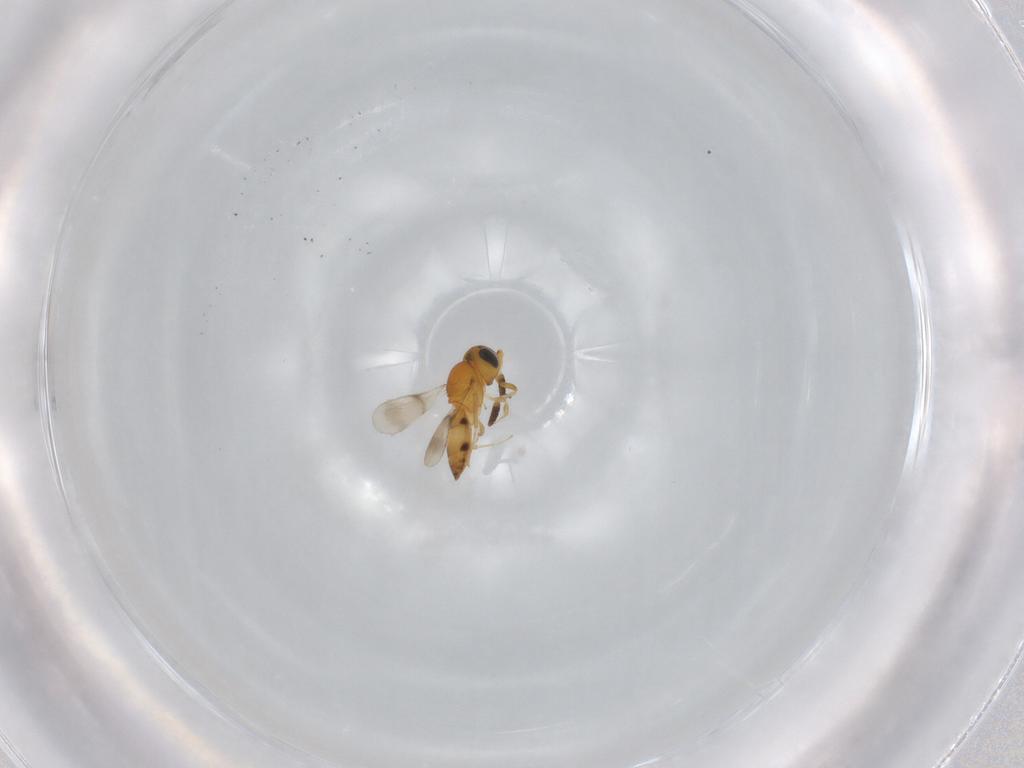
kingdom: Animalia
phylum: Arthropoda
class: Insecta
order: Hymenoptera
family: Scelionidae
